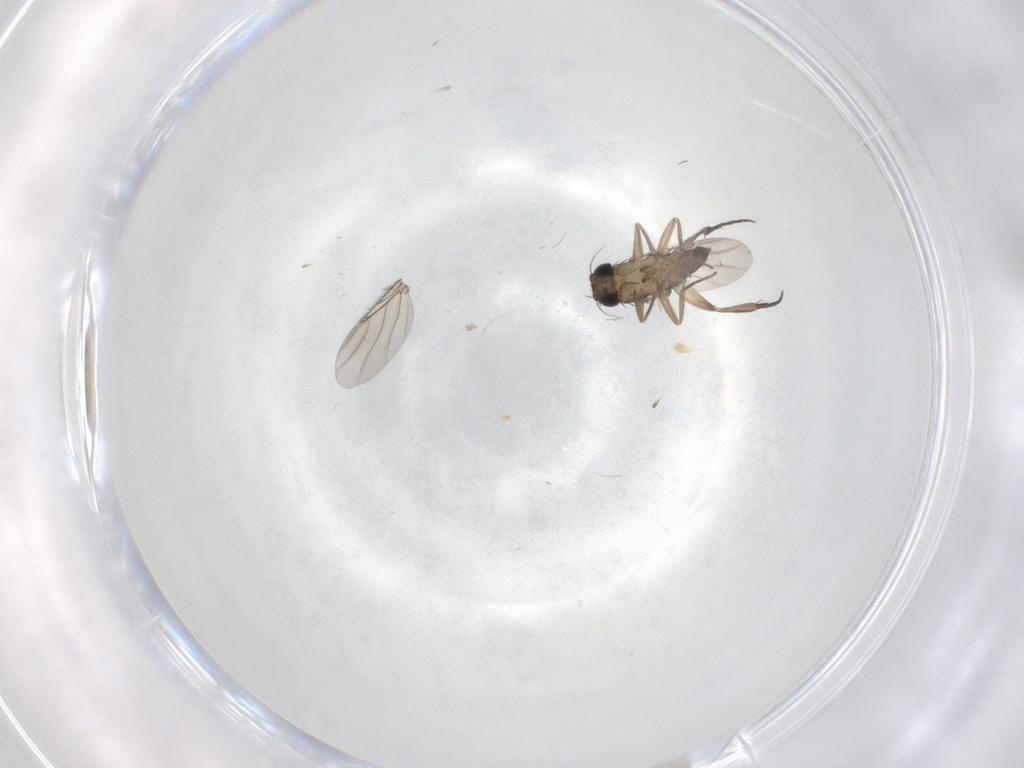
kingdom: Animalia
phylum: Arthropoda
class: Insecta
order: Diptera
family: Phoridae
